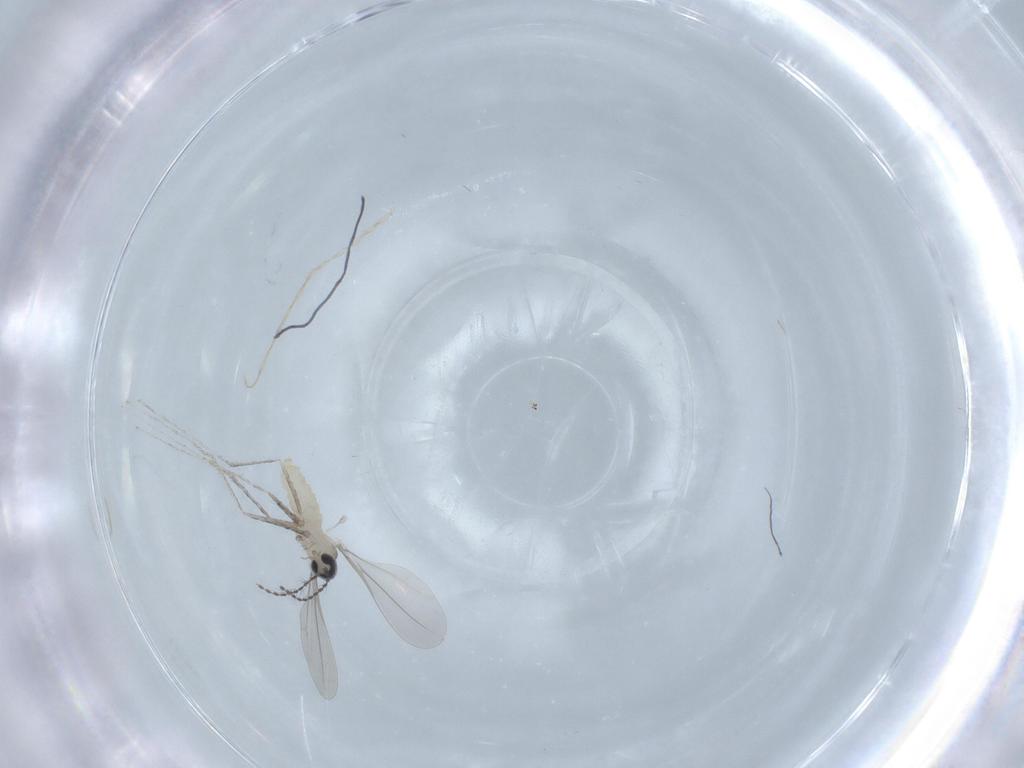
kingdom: Animalia
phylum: Arthropoda
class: Insecta
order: Diptera
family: Cecidomyiidae
